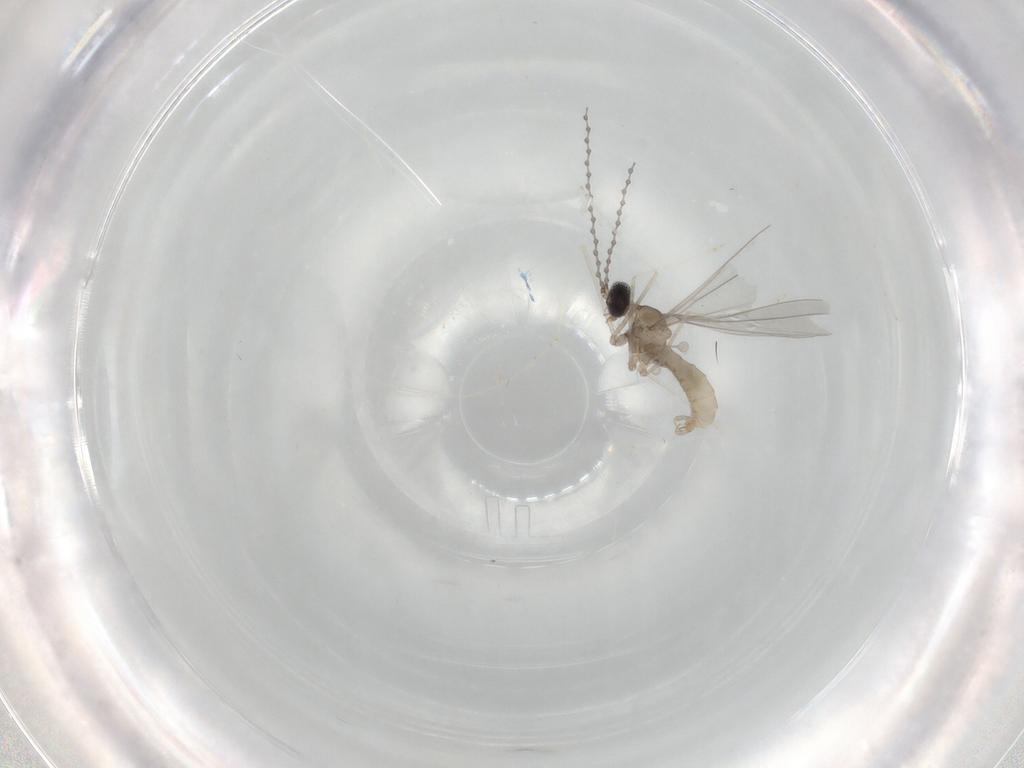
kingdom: Animalia
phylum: Arthropoda
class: Insecta
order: Diptera
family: Cecidomyiidae
